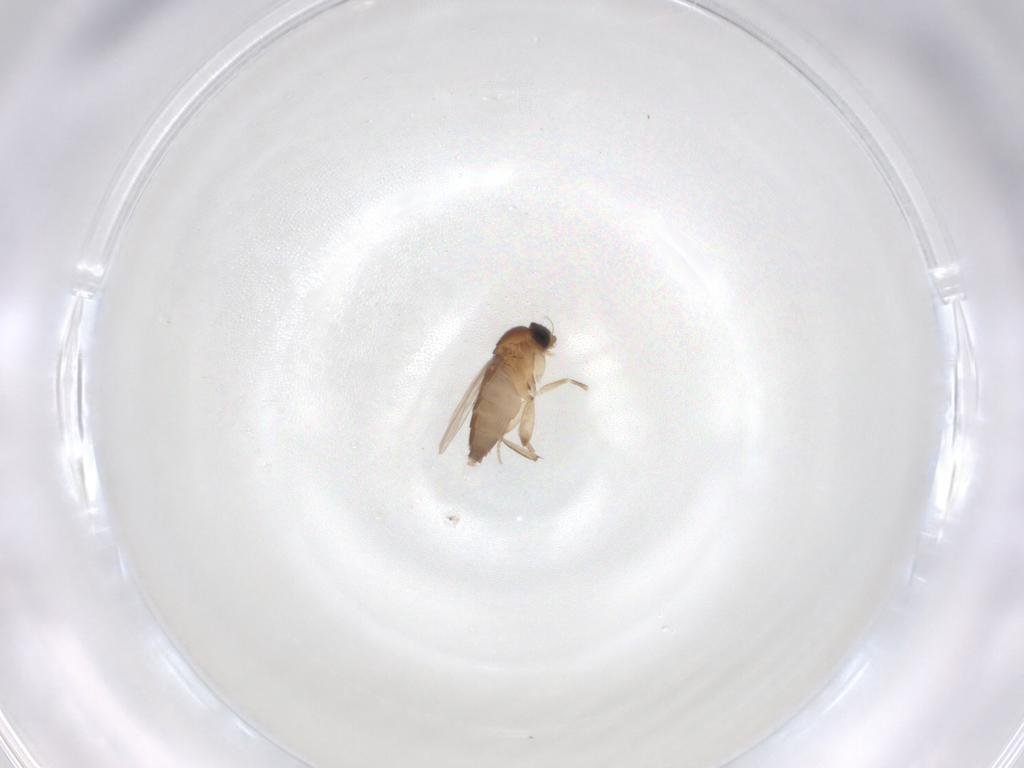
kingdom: Animalia
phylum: Arthropoda
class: Insecta
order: Diptera
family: Phoridae
